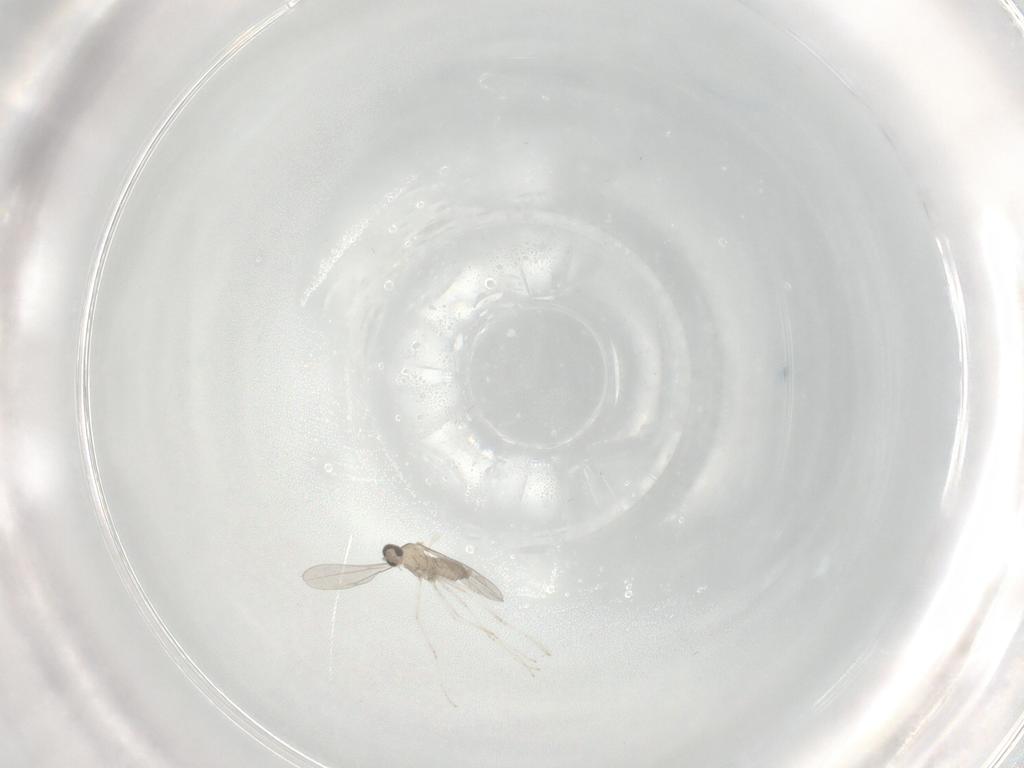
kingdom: Animalia
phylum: Arthropoda
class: Insecta
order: Diptera
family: Cecidomyiidae
